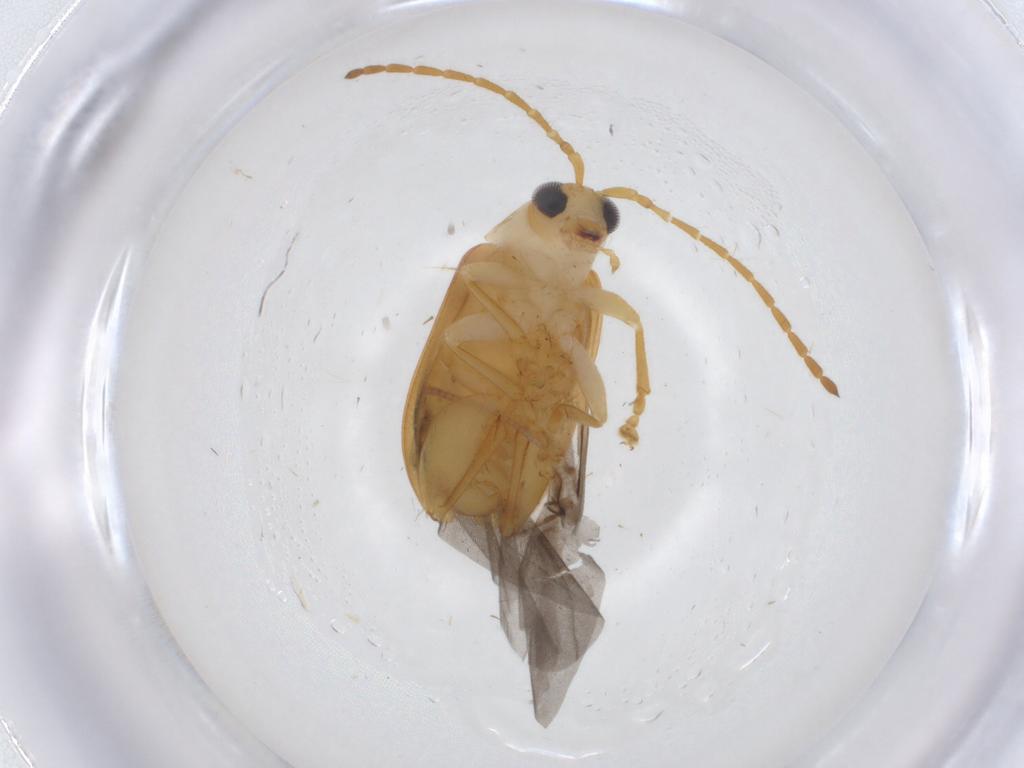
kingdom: Animalia
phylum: Arthropoda
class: Insecta
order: Coleoptera
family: Chrysomelidae
